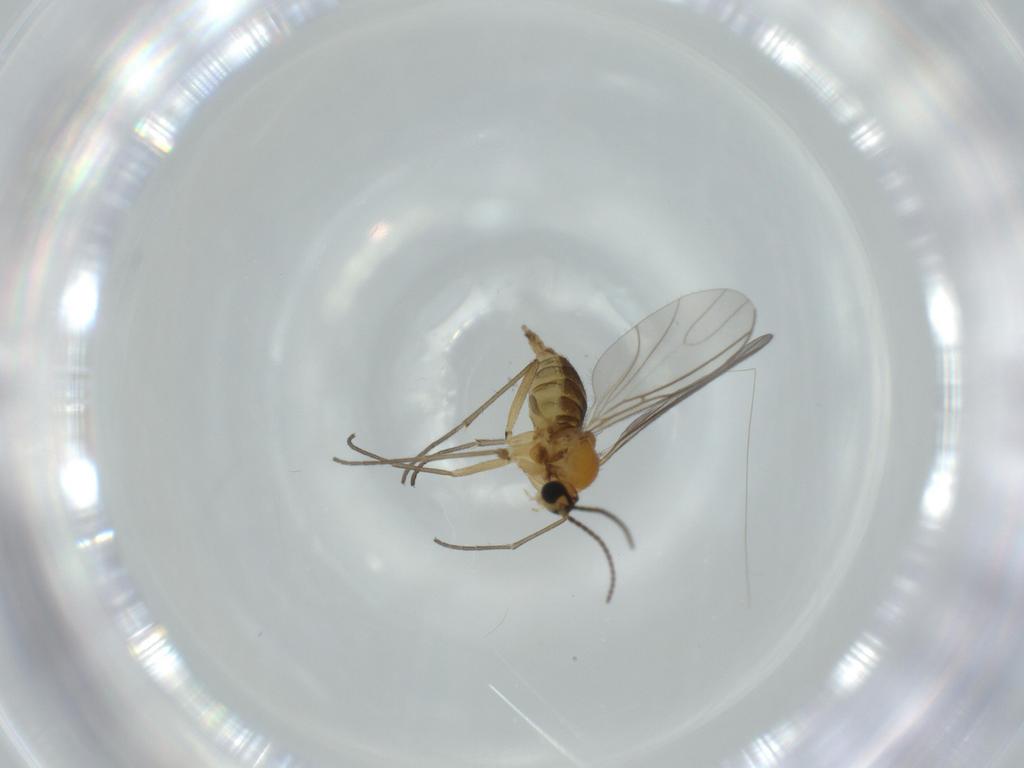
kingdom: Animalia
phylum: Arthropoda
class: Insecta
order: Diptera
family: Sciaridae
